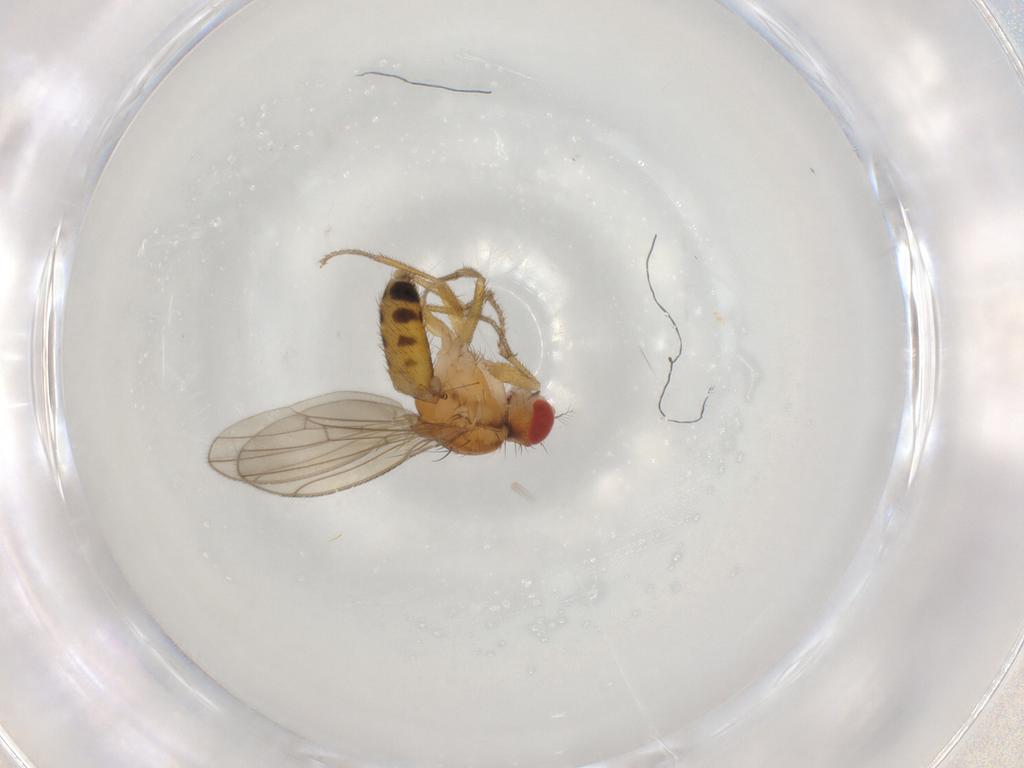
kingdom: Animalia
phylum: Arthropoda
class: Insecta
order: Diptera
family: Drosophilidae
